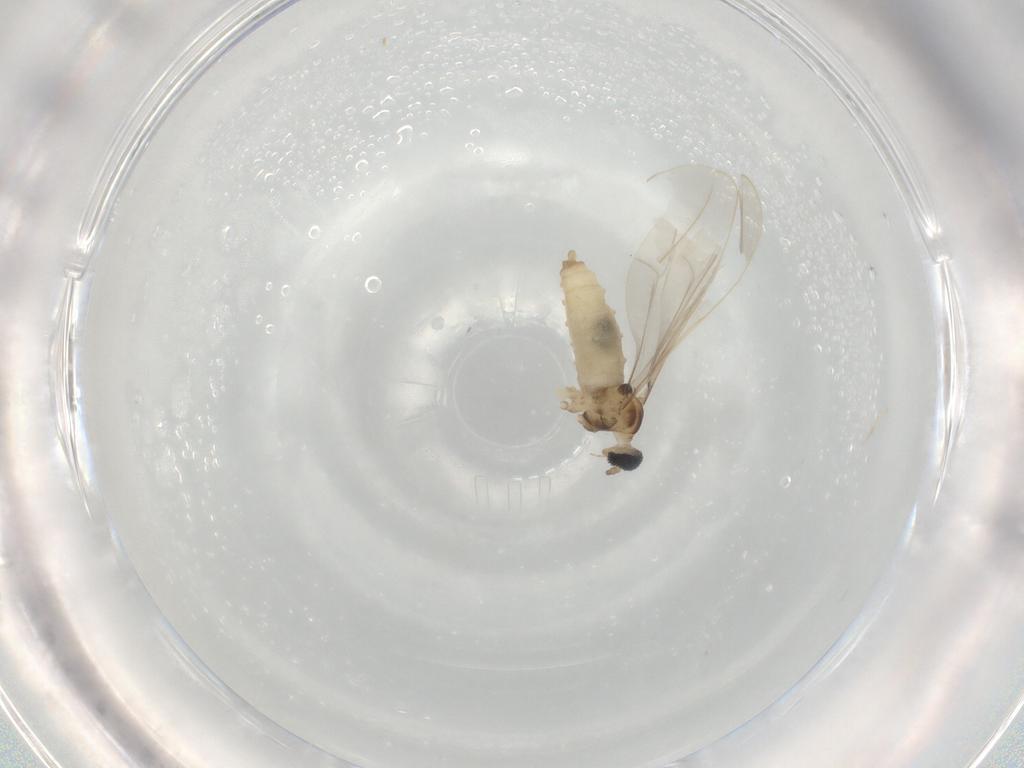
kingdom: Animalia
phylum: Arthropoda
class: Insecta
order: Diptera
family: Cecidomyiidae
